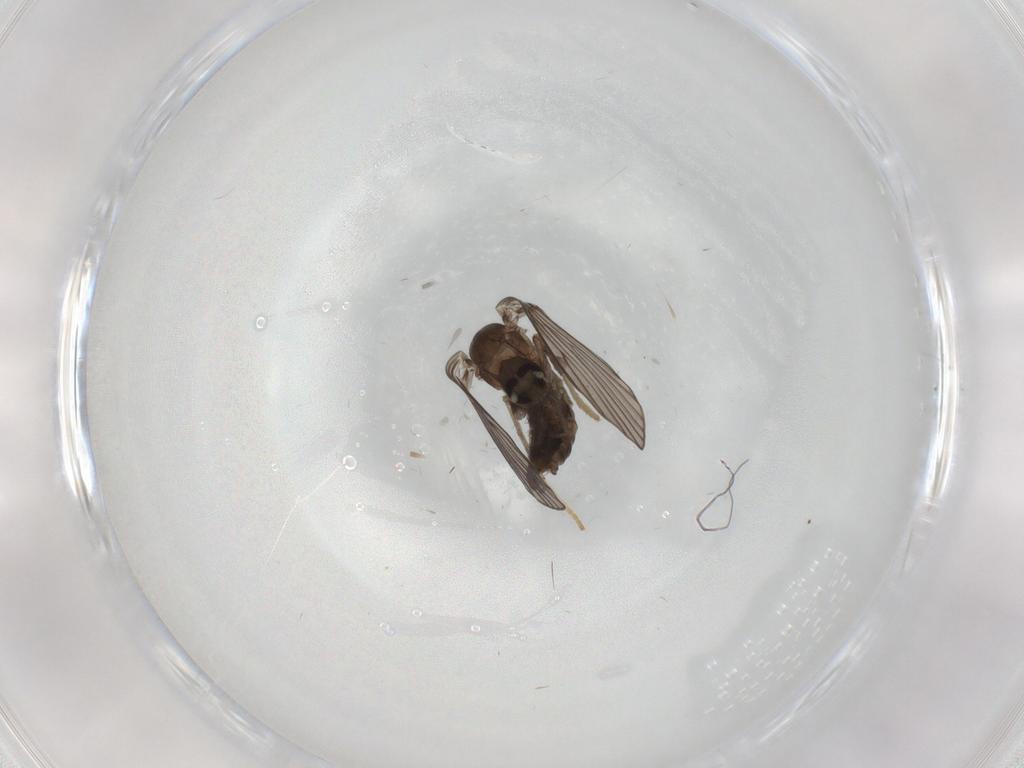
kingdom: Animalia
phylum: Arthropoda
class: Insecta
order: Diptera
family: Psychodidae
